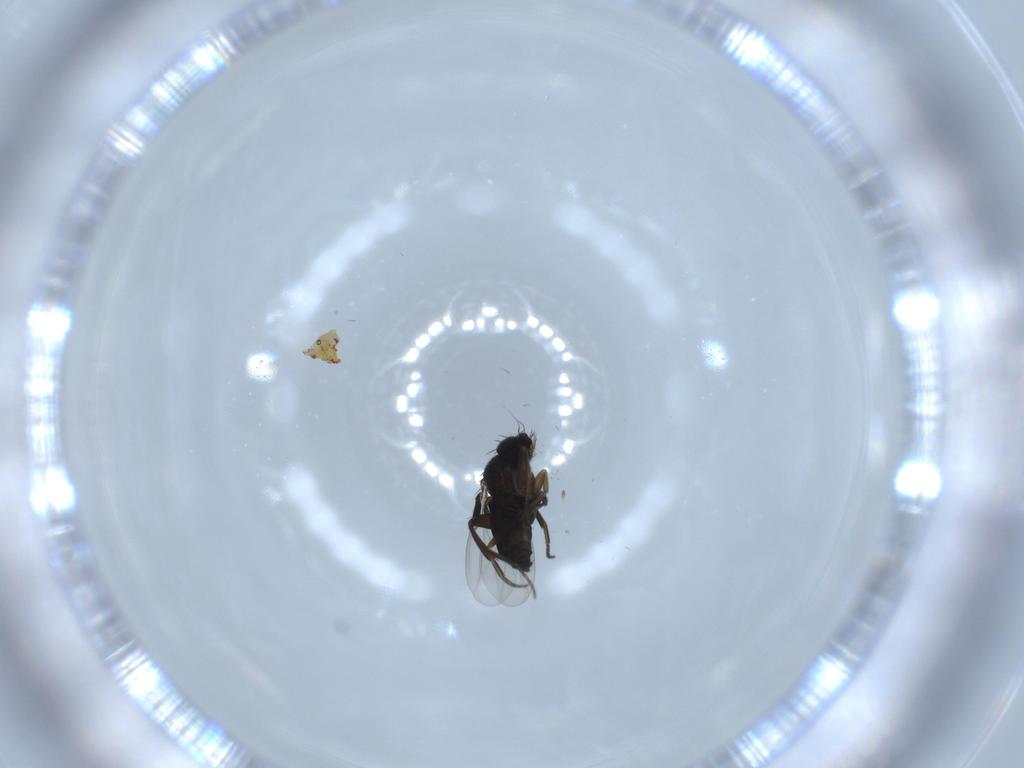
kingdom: Animalia
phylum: Arthropoda
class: Insecta
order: Diptera
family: Phoridae
